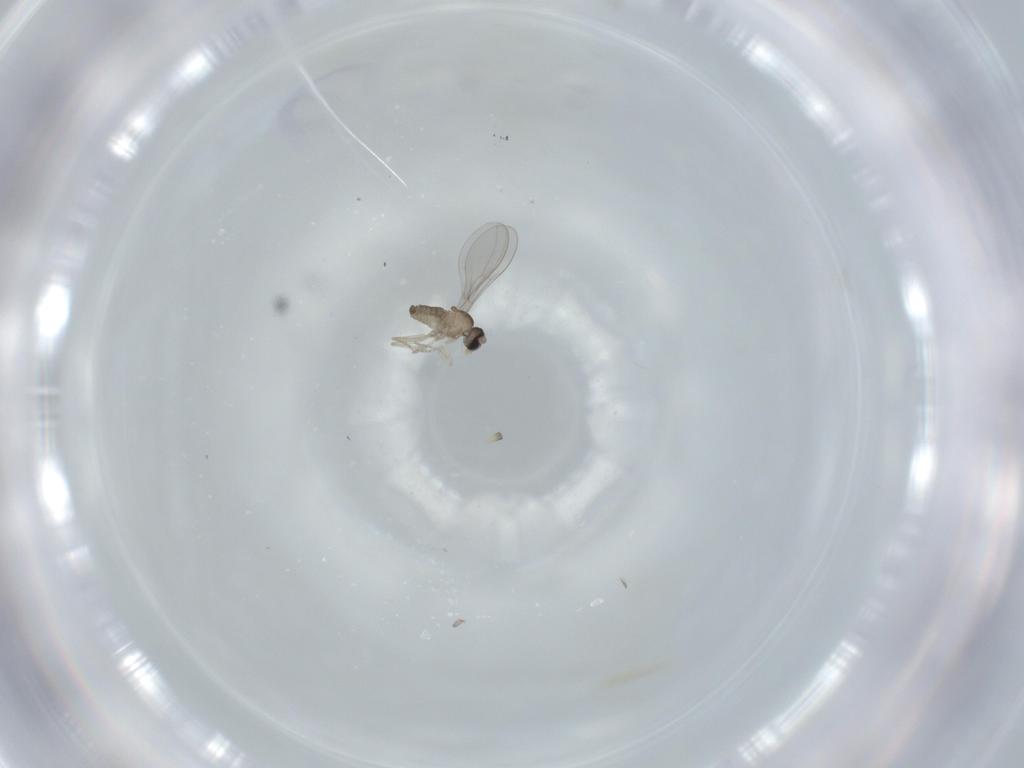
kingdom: Animalia
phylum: Arthropoda
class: Insecta
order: Diptera
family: Cecidomyiidae
